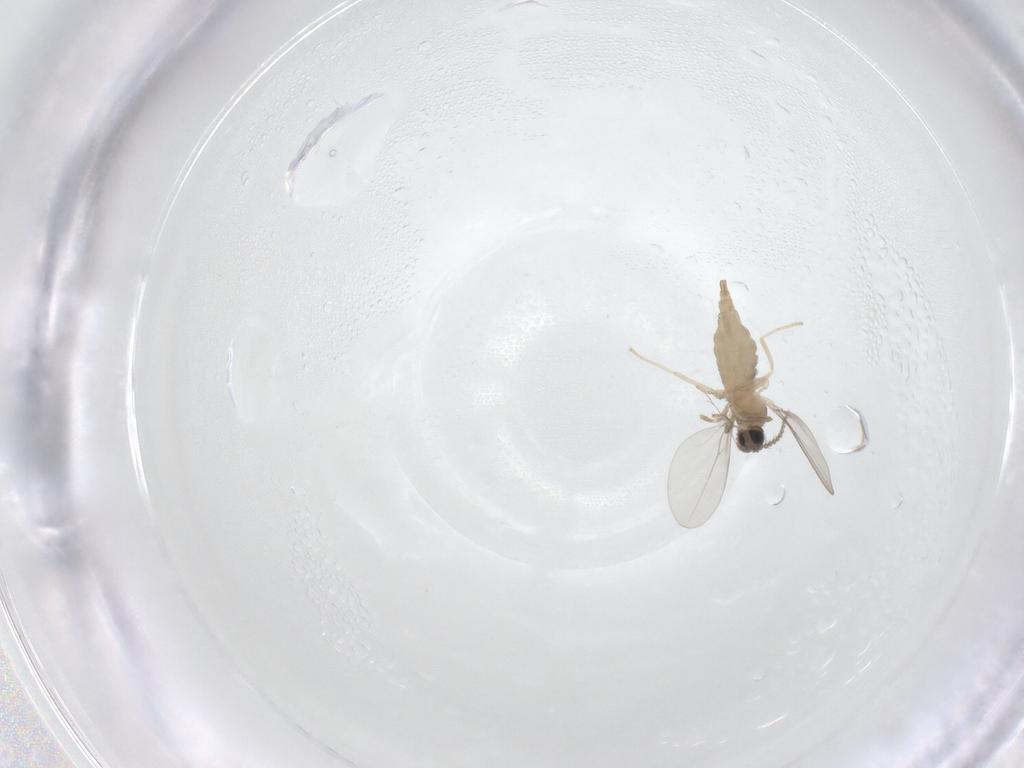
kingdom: Animalia
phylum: Arthropoda
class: Insecta
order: Diptera
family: Cecidomyiidae
